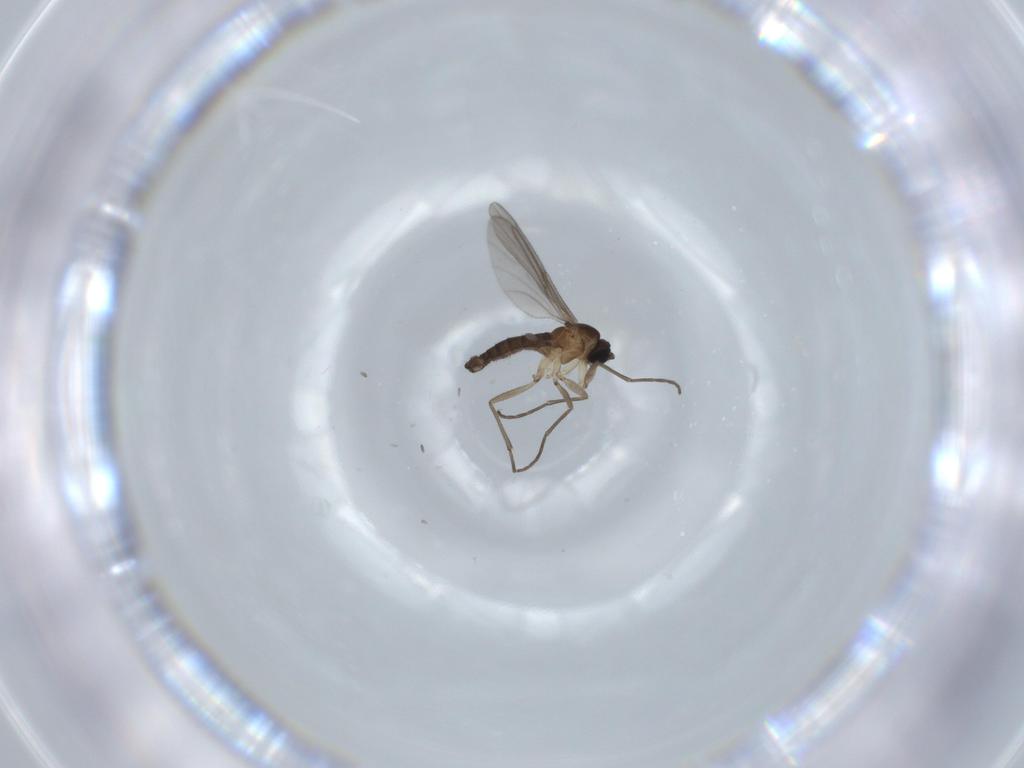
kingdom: Animalia
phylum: Arthropoda
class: Insecta
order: Diptera
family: Sciaridae
